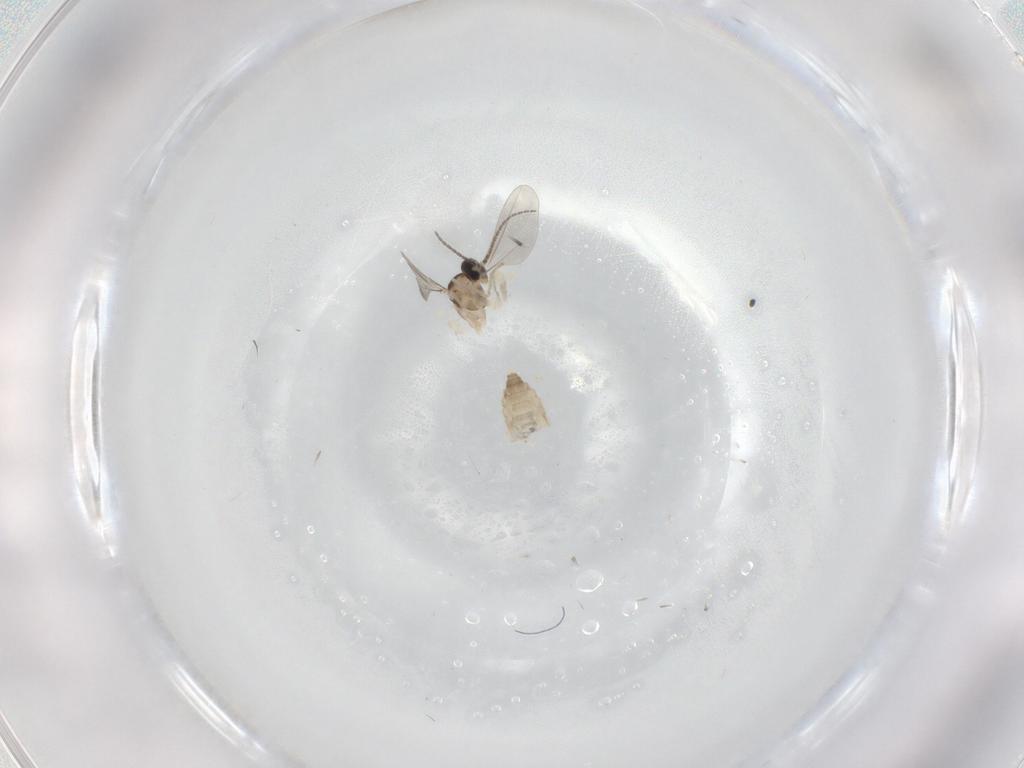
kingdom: Animalia
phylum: Arthropoda
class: Insecta
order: Diptera
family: Cecidomyiidae
